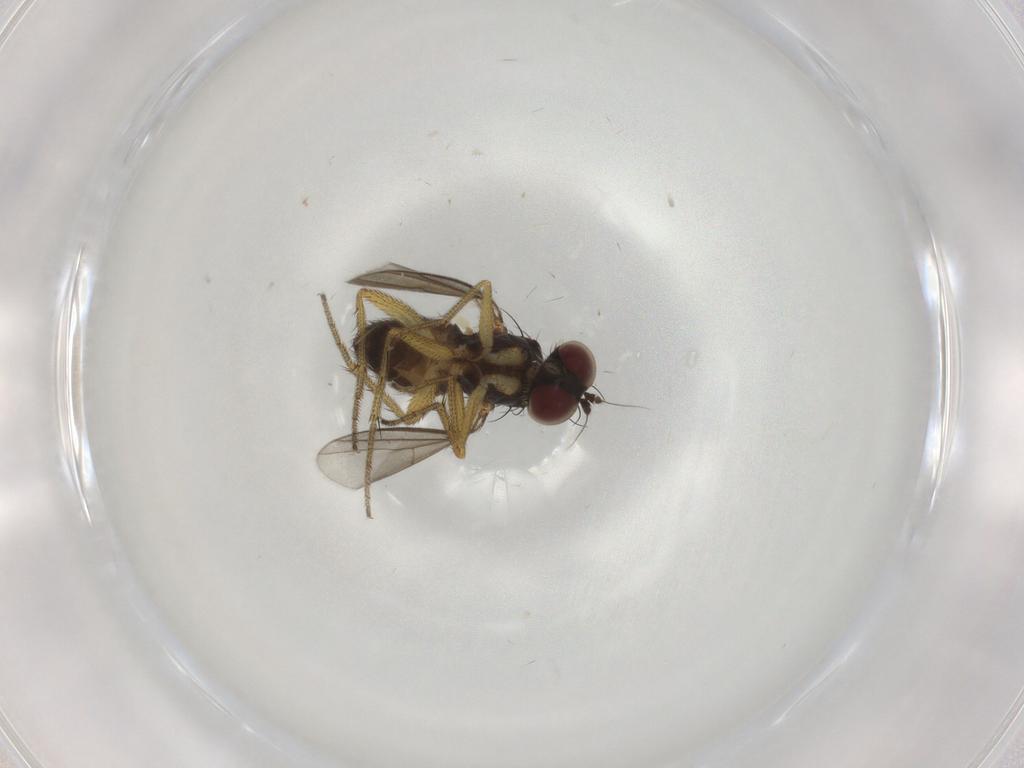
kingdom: Animalia
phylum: Arthropoda
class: Insecta
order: Diptera
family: Dolichopodidae
